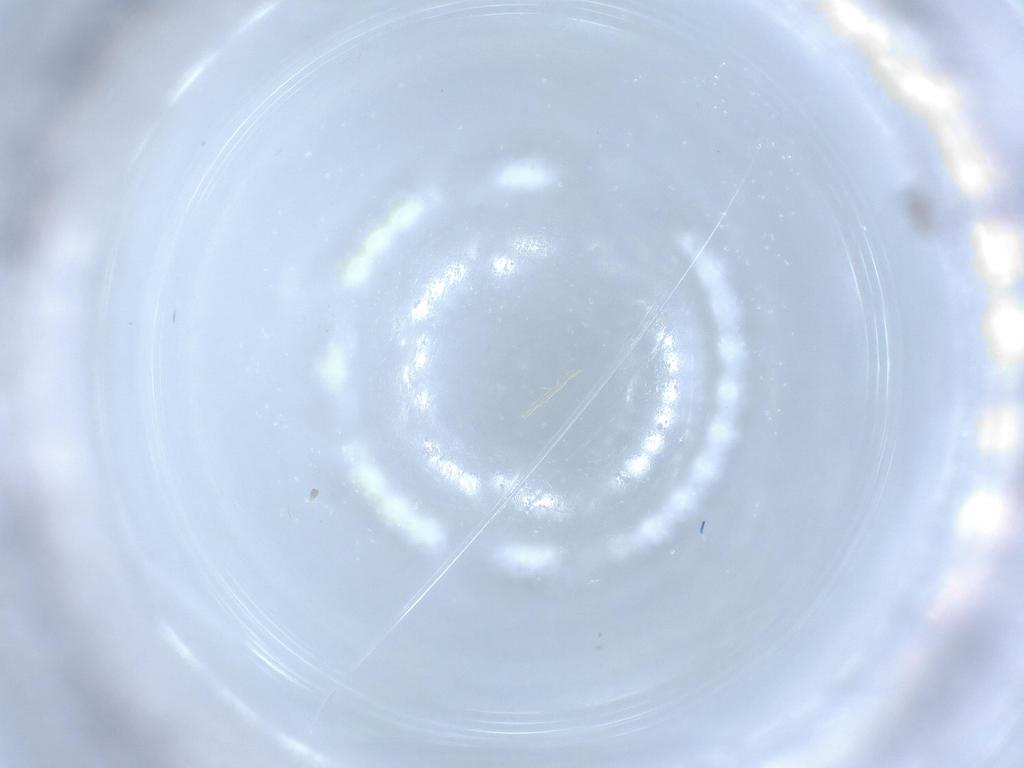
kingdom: Animalia
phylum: Arthropoda
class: Insecta
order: Diptera
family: Cecidomyiidae
